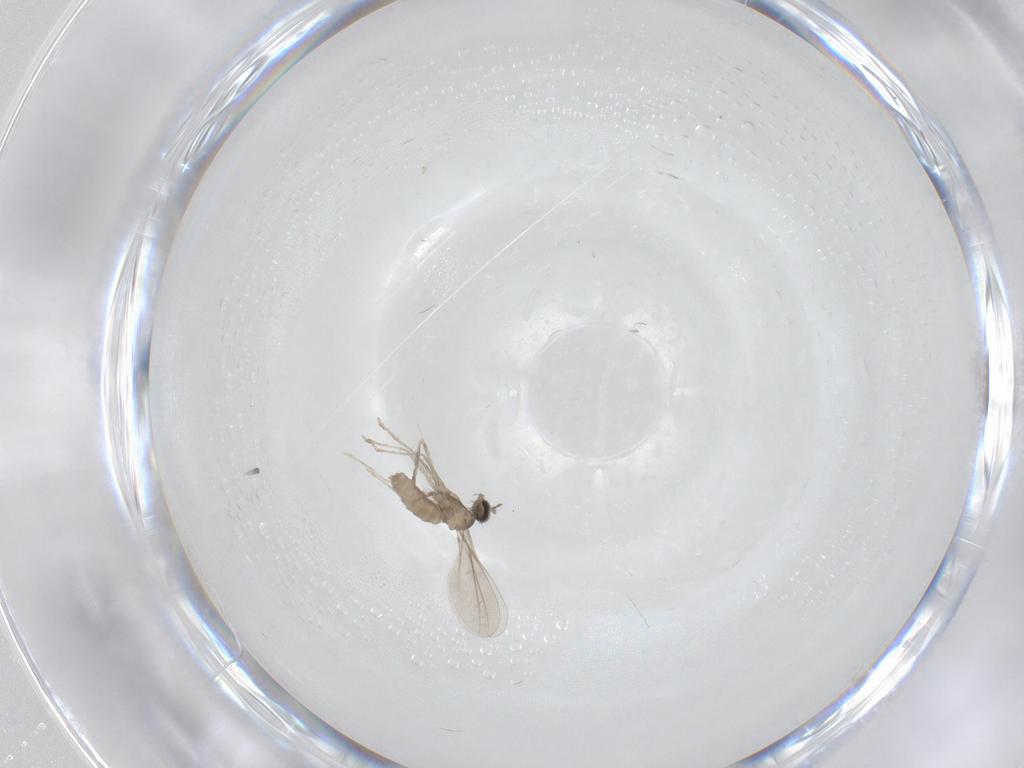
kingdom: Animalia
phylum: Arthropoda
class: Insecta
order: Diptera
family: Cecidomyiidae
